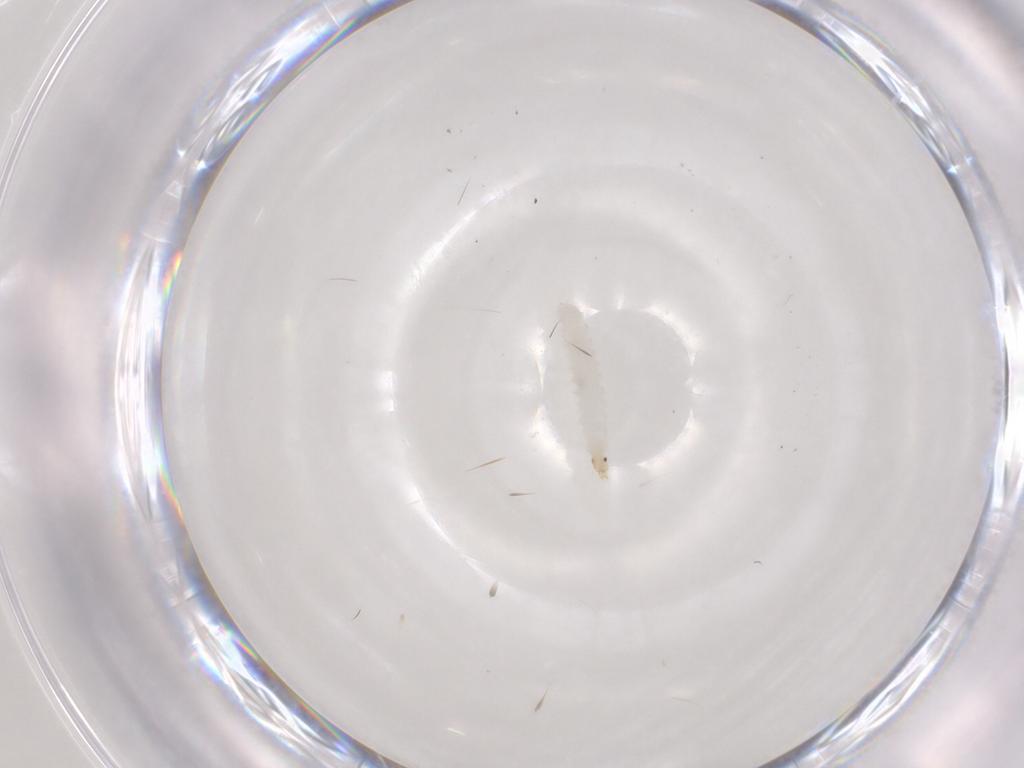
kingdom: Animalia
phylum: Arthropoda
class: Insecta
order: Diptera
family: Stratiomyidae
